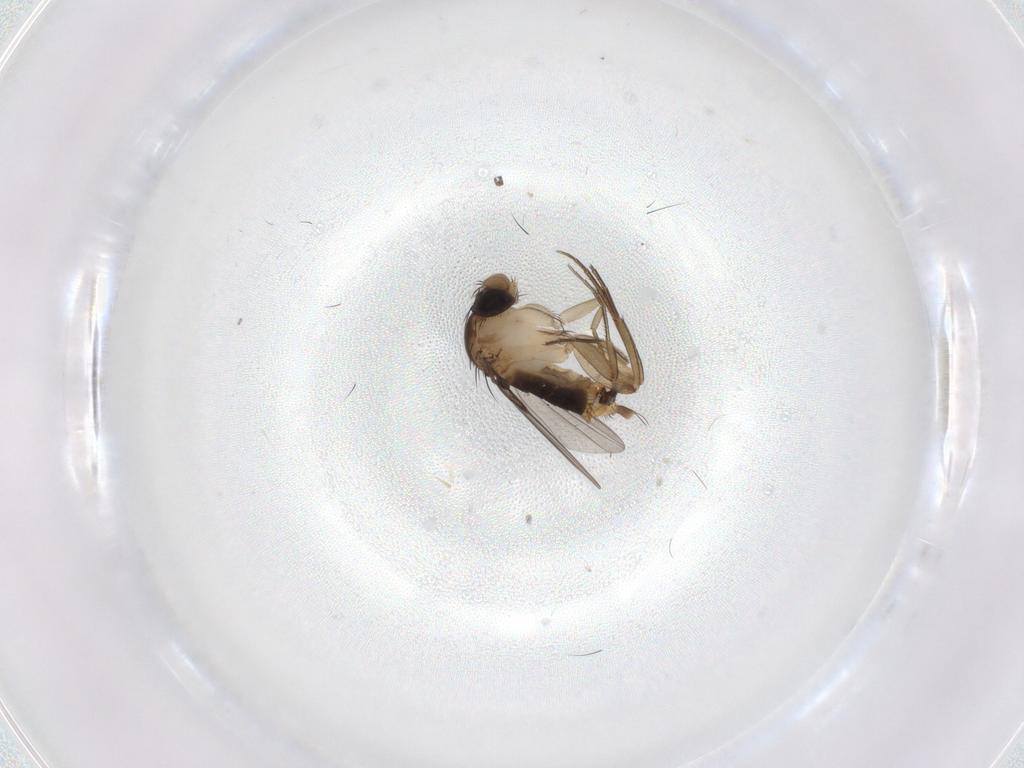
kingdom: Animalia
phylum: Arthropoda
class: Insecta
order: Diptera
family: Phoridae
